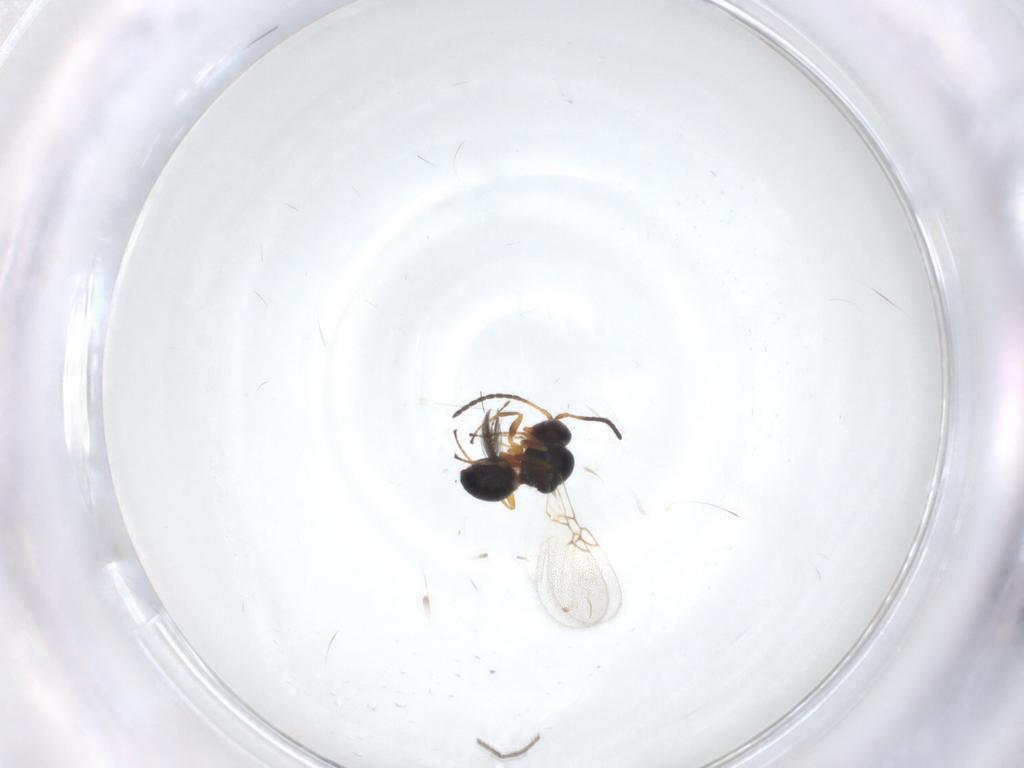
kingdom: Animalia
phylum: Arthropoda
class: Insecta
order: Hymenoptera
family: Figitidae
